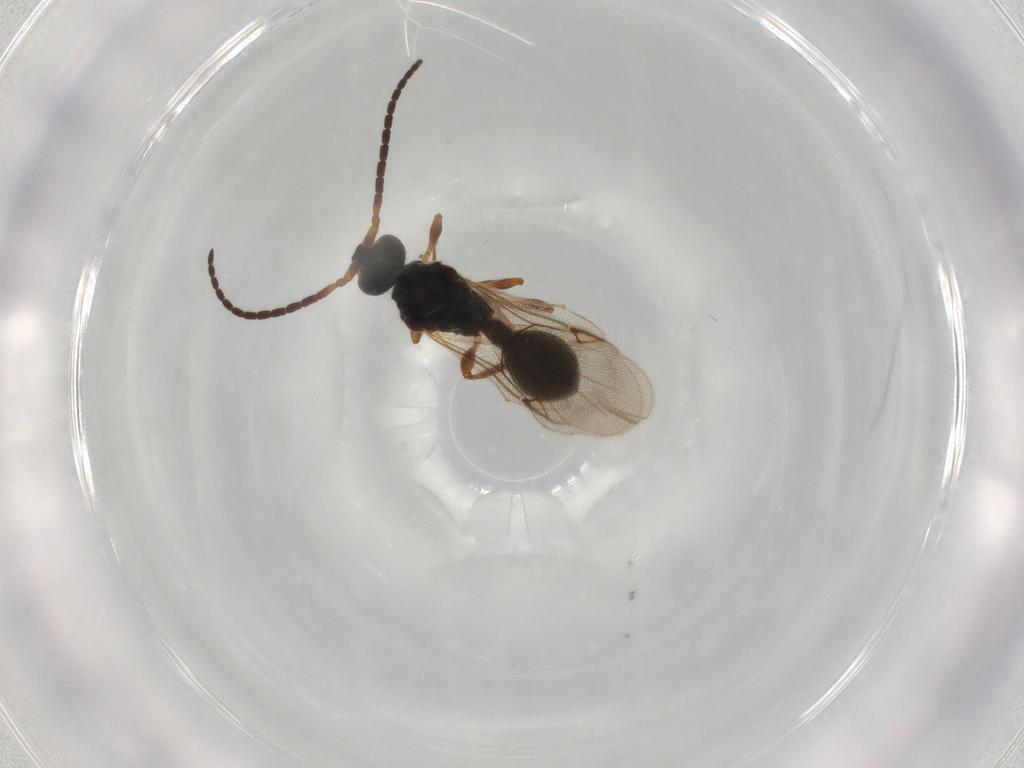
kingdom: Animalia
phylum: Arthropoda
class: Insecta
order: Hymenoptera
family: Diapriidae
